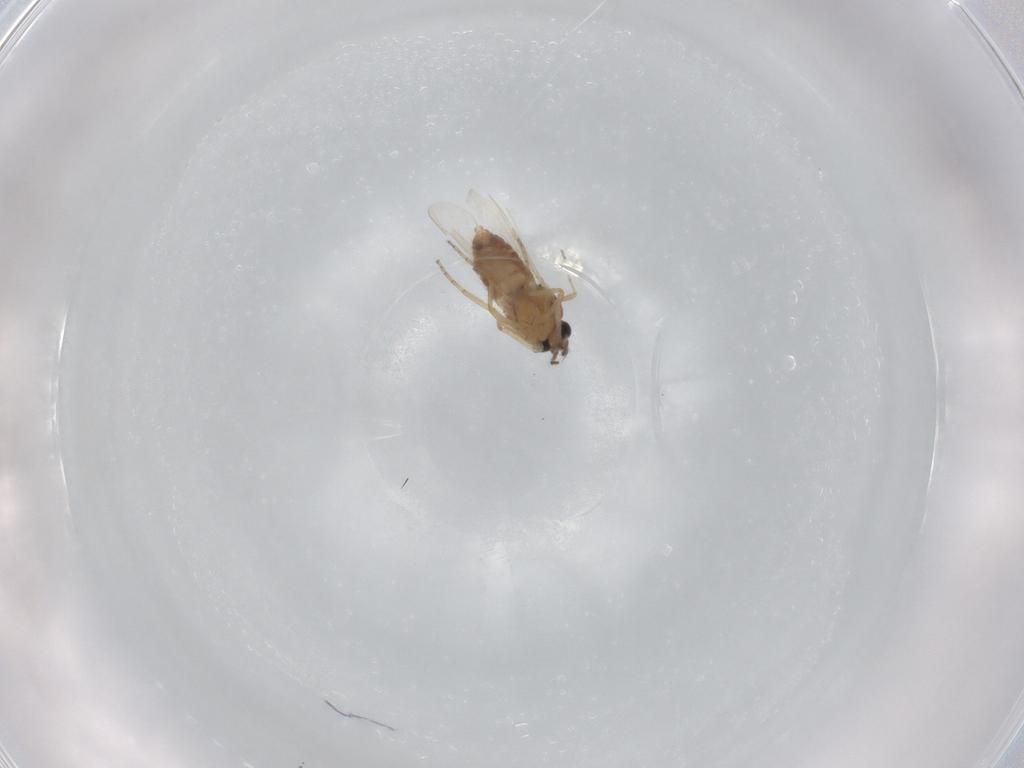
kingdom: Animalia
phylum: Arthropoda
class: Insecta
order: Diptera
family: Ceratopogonidae
